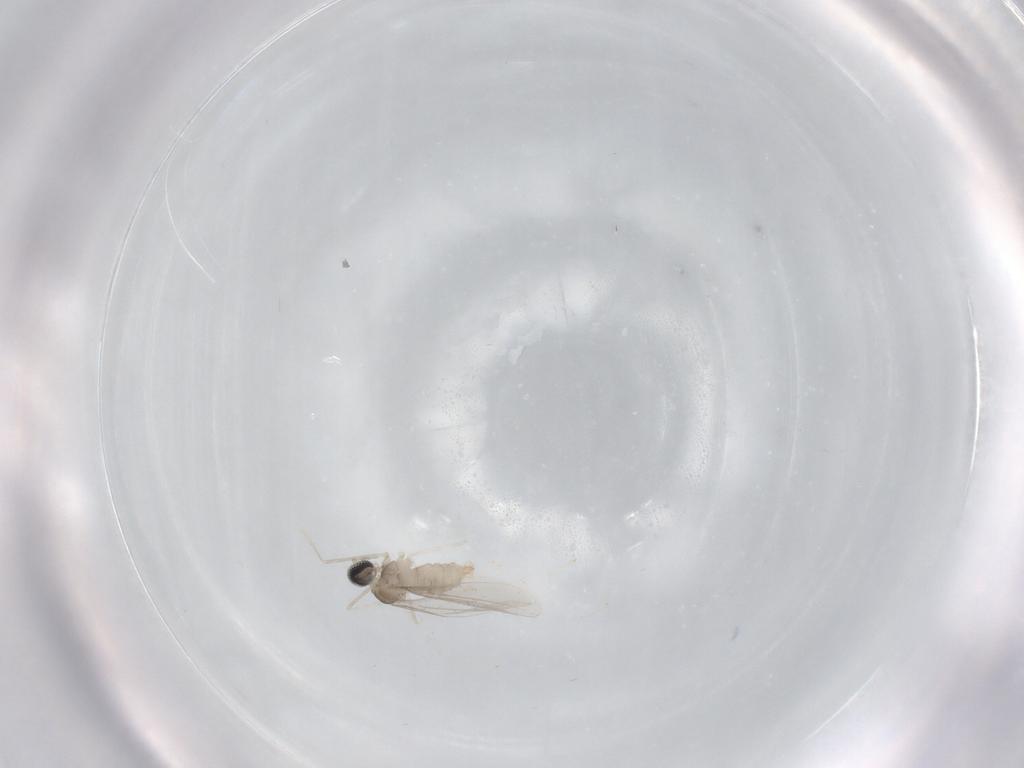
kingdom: Animalia
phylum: Arthropoda
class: Insecta
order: Diptera
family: Cecidomyiidae
